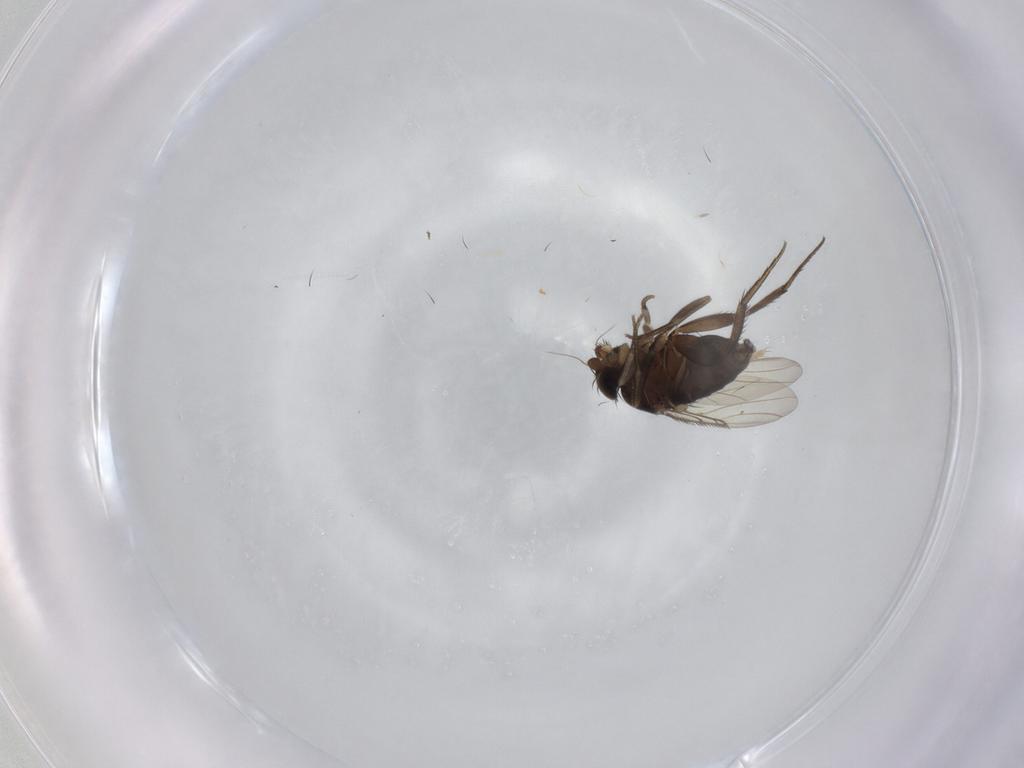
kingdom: Animalia
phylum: Arthropoda
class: Insecta
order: Diptera
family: Phoridae
